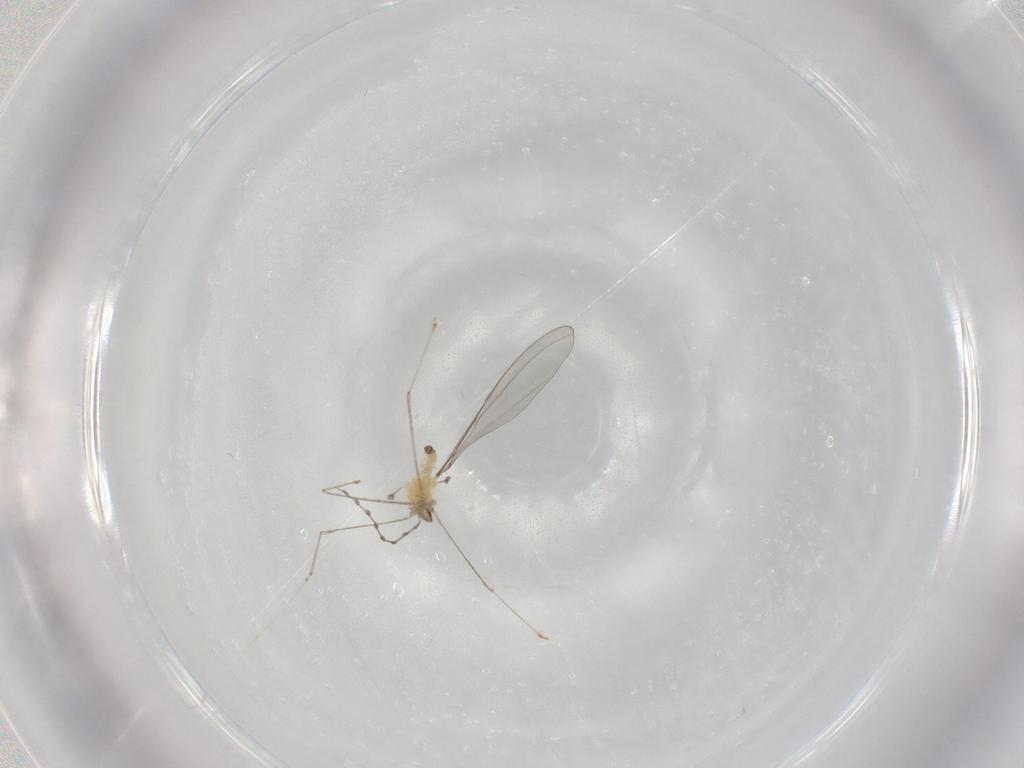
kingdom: Animalia
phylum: Arthropoda
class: Insecta
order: Diptera
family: Cecidomyiidae
